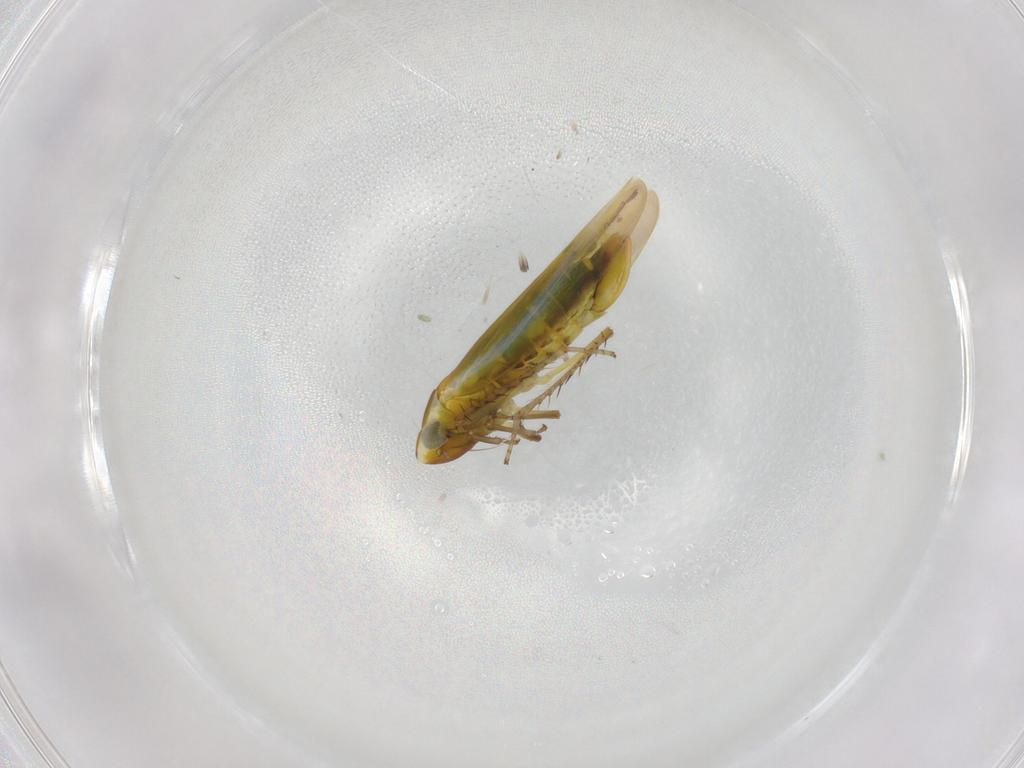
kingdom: Animalia
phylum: Arthropoda
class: Insecta
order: Hemiptera
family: Cicadellidae
